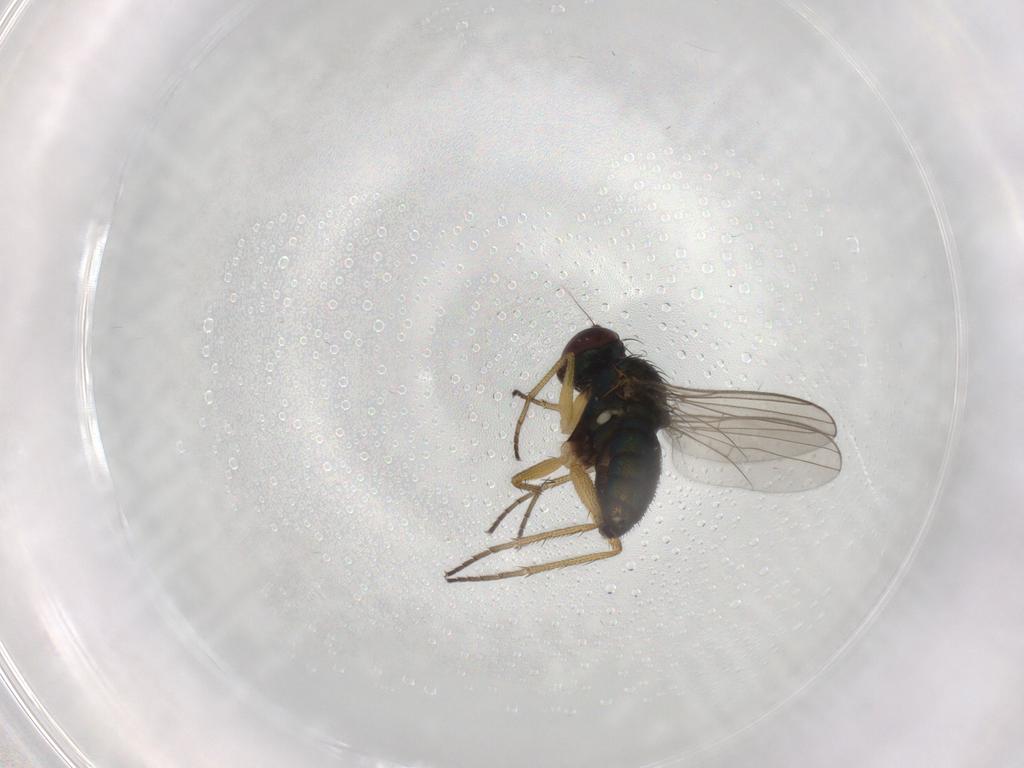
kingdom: Animalia
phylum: Arthropoda
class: Insecta
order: Diptera
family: Dolichopodidae
